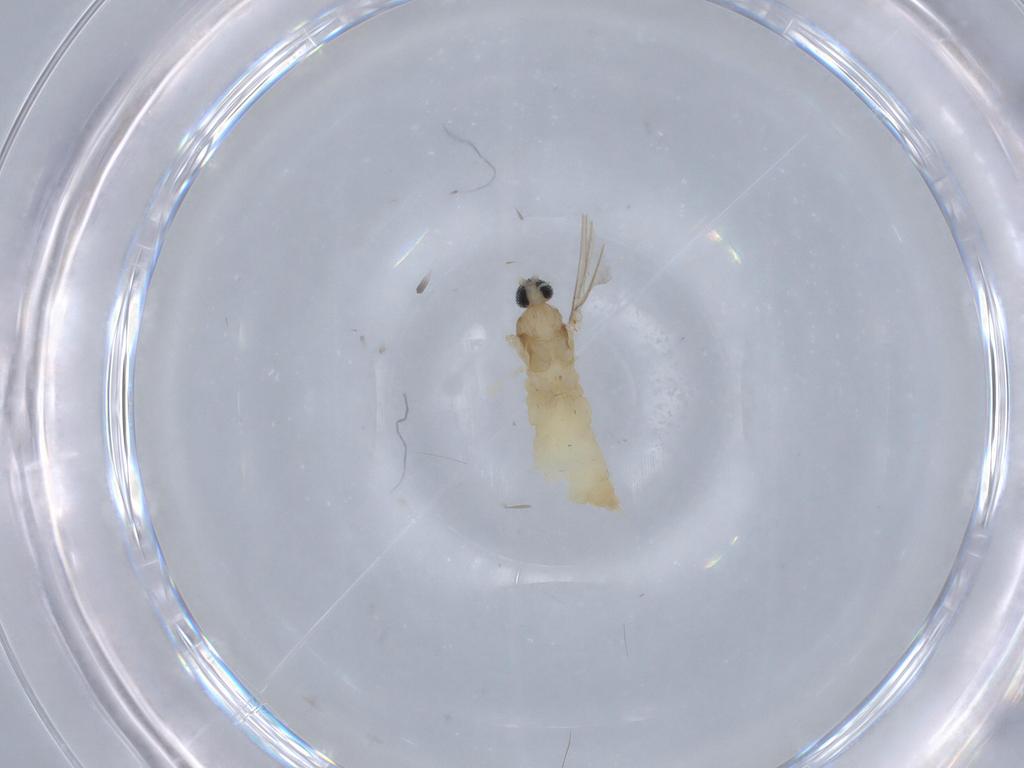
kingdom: Animalia
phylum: Arthropoda
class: Insecta
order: Diptera
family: Cecidomyiidae
